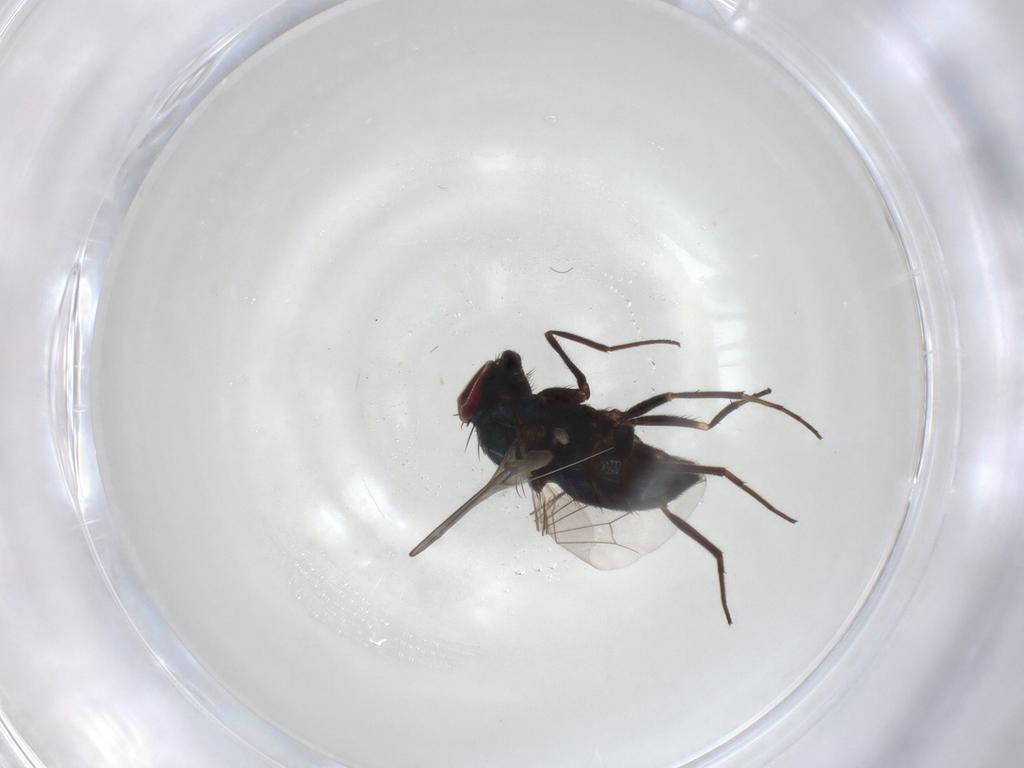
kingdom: Animalia
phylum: Arthropoda
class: Insecta
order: Diptera
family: Dolichopodidae
